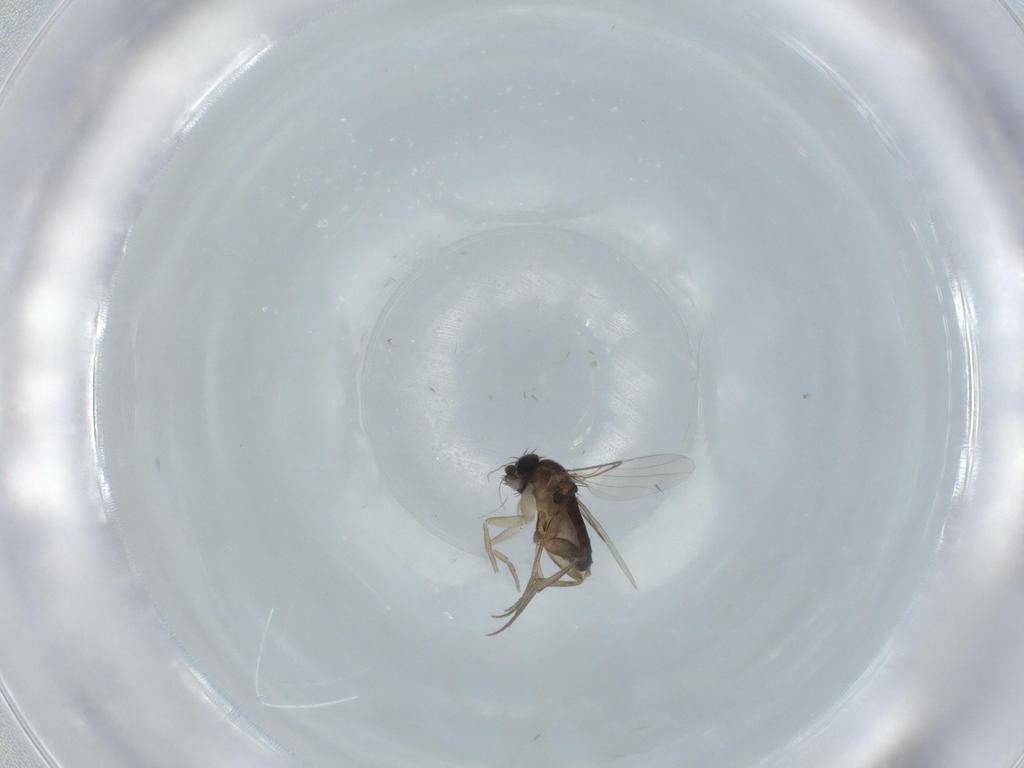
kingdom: Animalia
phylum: Arthropoda
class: Insecta
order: Diptera
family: Phoridae
